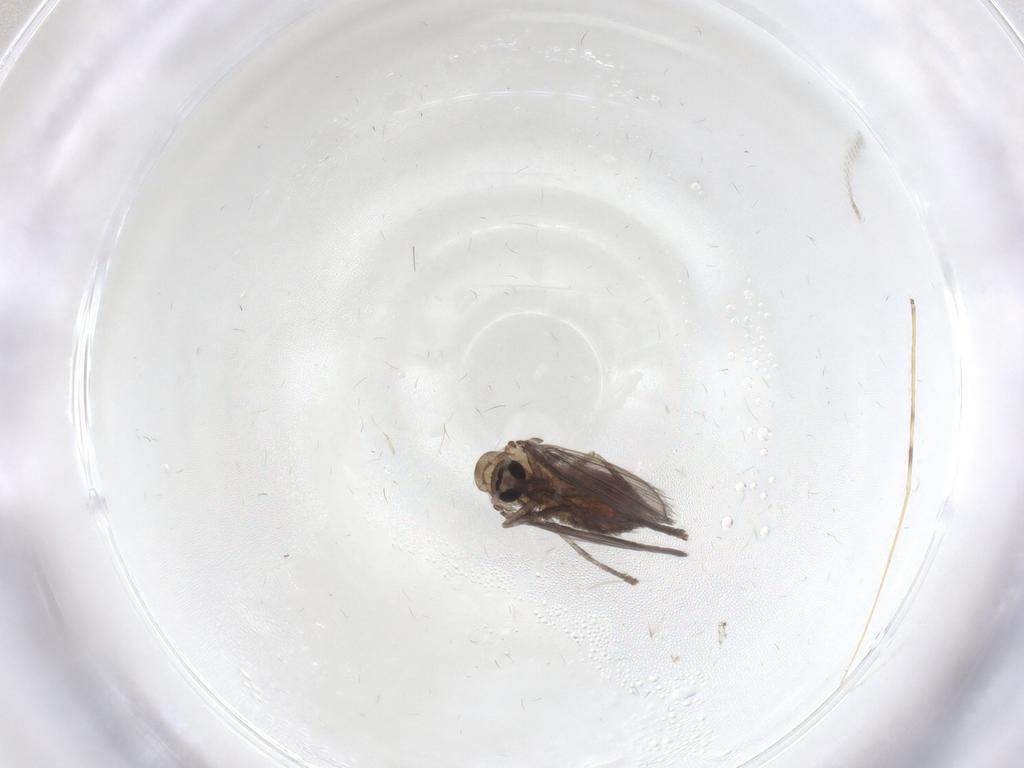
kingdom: Animalia
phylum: Arthropoda
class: Insecta
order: Diptera
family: Psychodidae
